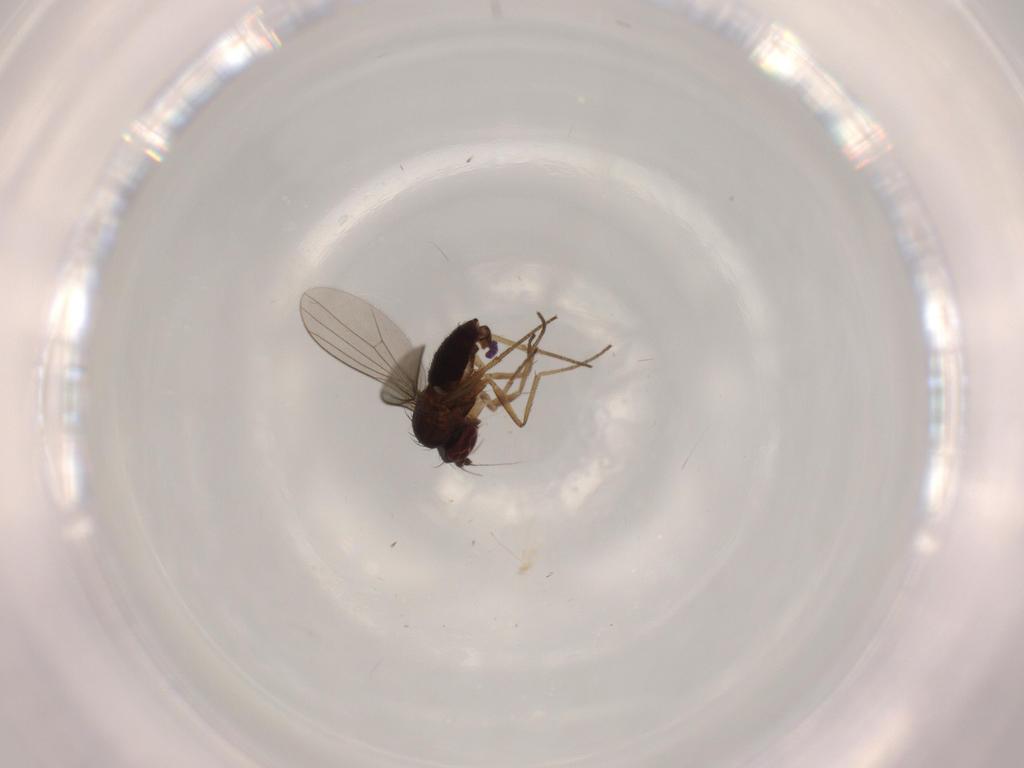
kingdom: Animalia
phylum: Arthropoda
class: Insecta
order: Diptera
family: Dolichopodidae
